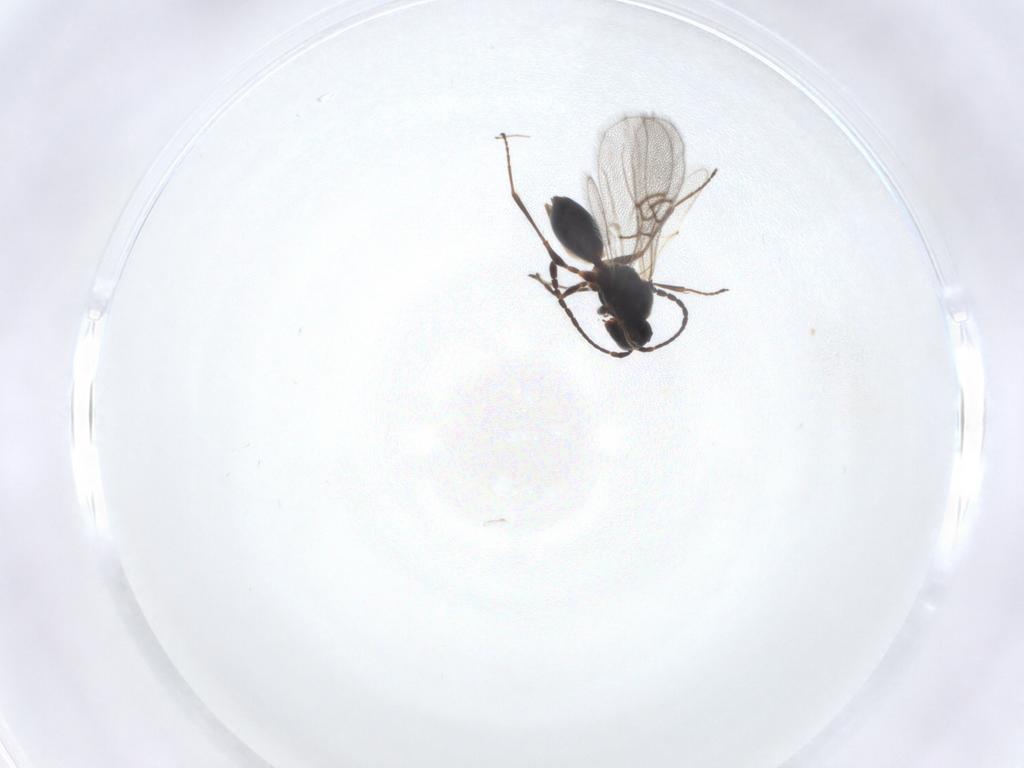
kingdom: Animalia
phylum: Arthropoda
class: Insecta
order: Hymenoptera
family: Figitidae
